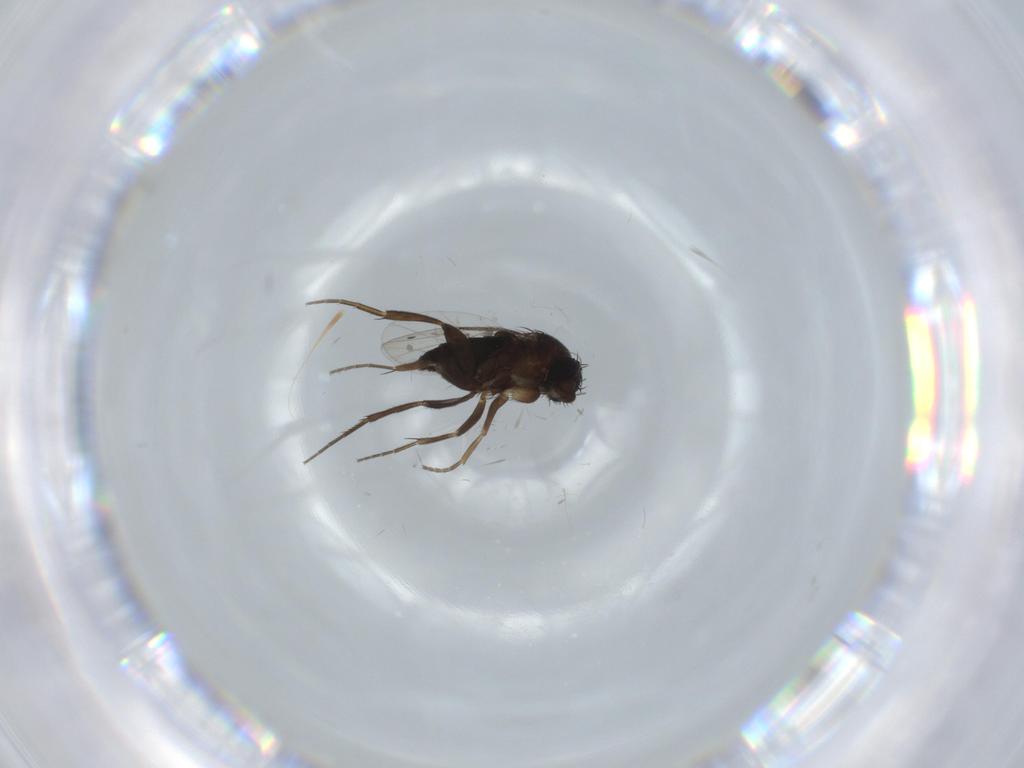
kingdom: Animalia
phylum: Arthropoda
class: Insecta
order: Diptera
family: Phoridae
